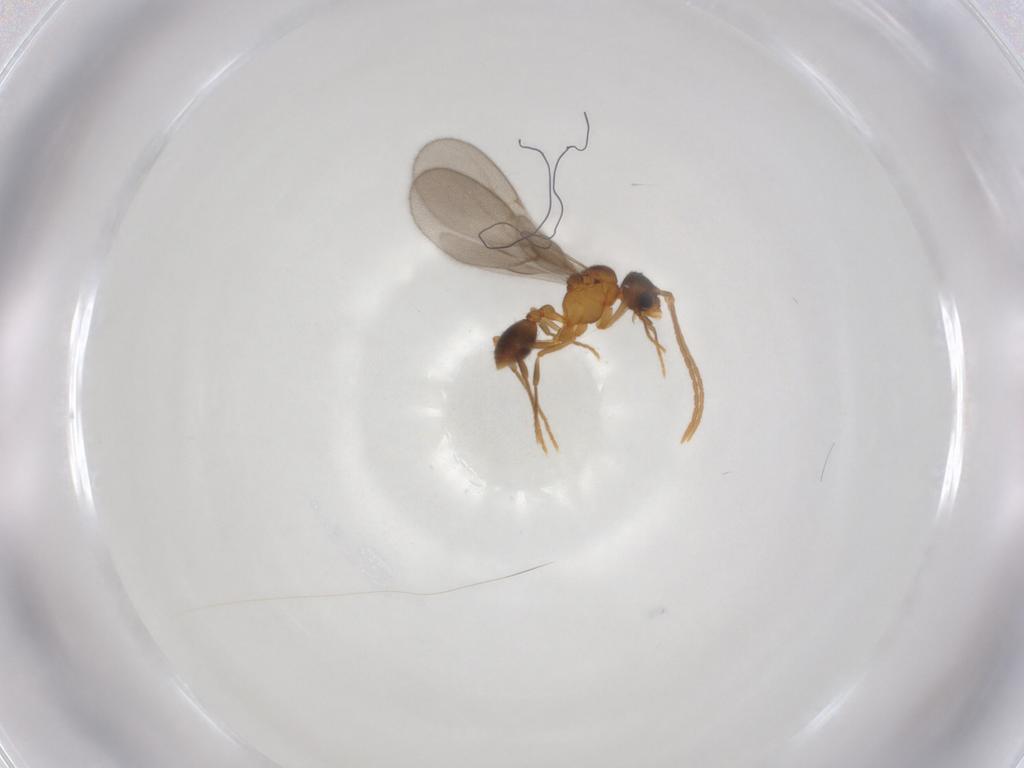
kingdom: Animalia
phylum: Arthropoda
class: Insecta
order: Hymenoptera
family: Formicidae
